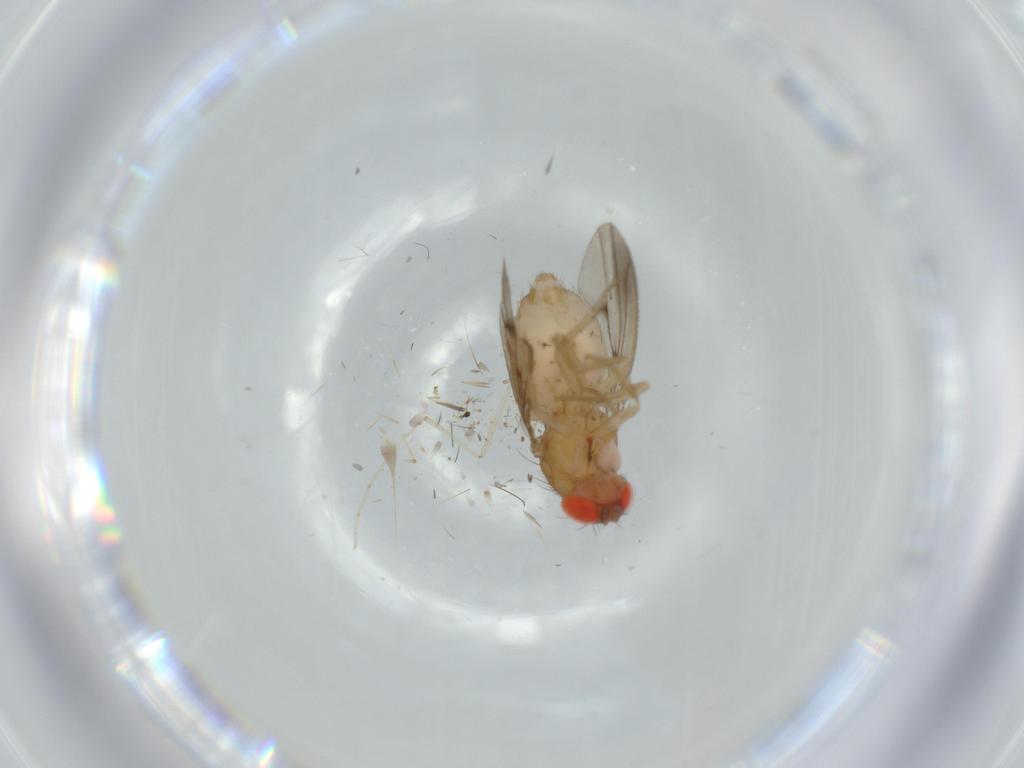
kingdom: Animalia
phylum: Arthropoda
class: Insecta
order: Diptera
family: Drosophilidae
